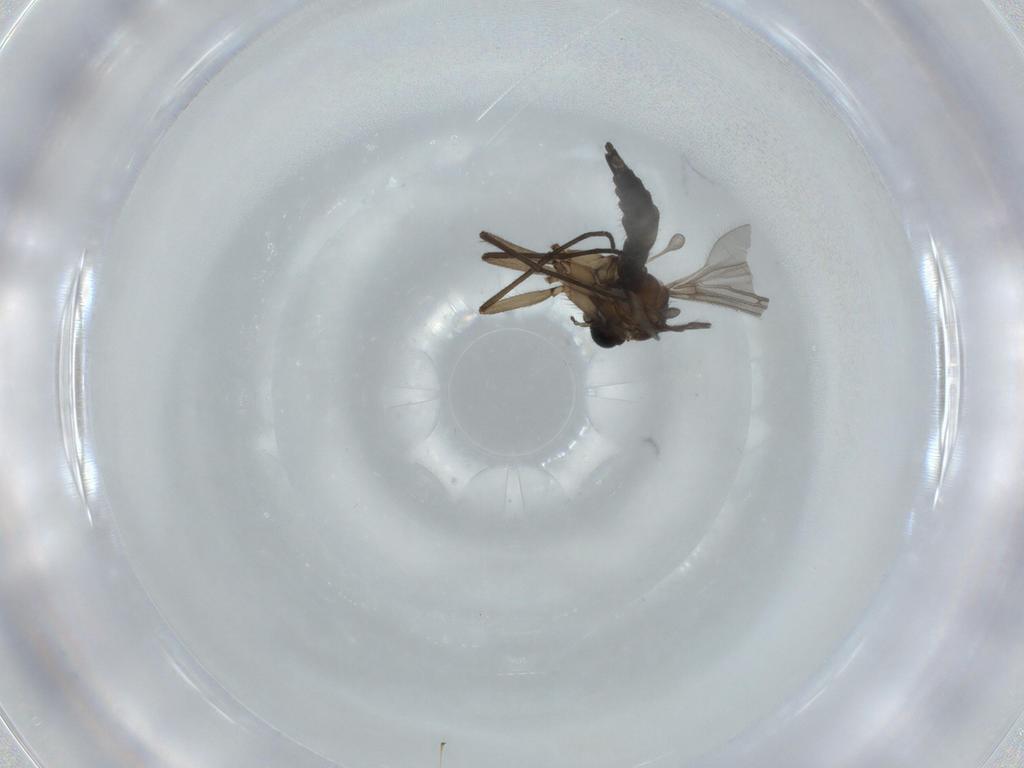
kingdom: Animalia
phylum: Arthropoda
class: Insecta
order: Diptera
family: Sciaridae
